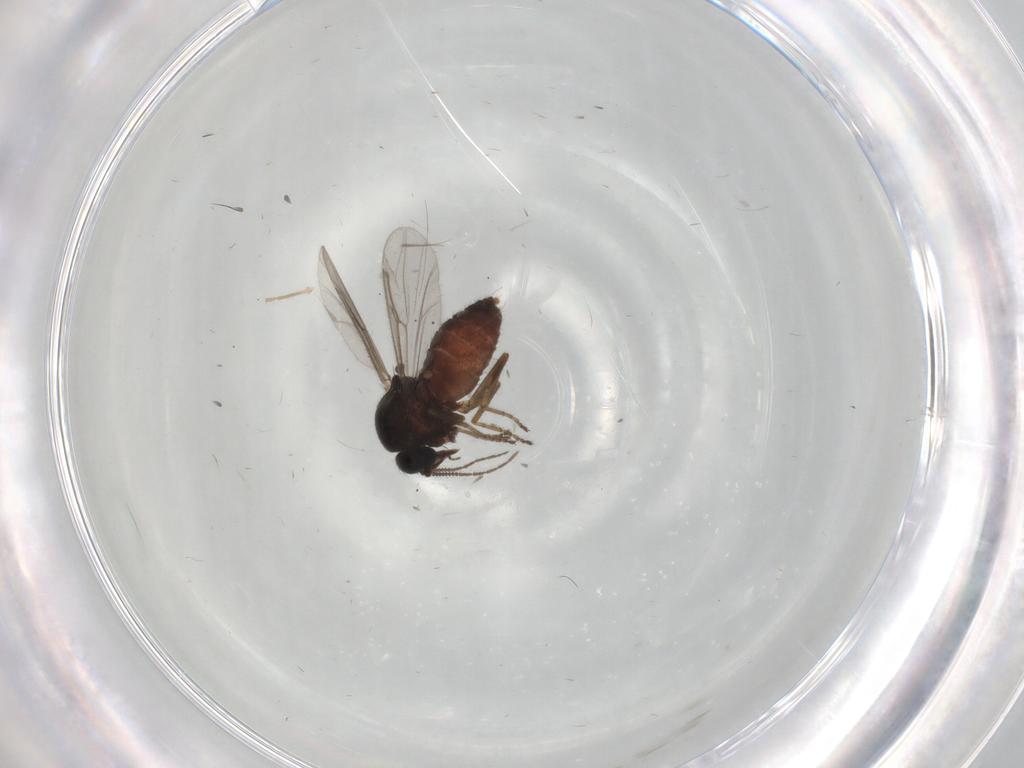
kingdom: Animalia
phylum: Arthropoda
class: Insecta
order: Diptera
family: Ceratopogonidae
